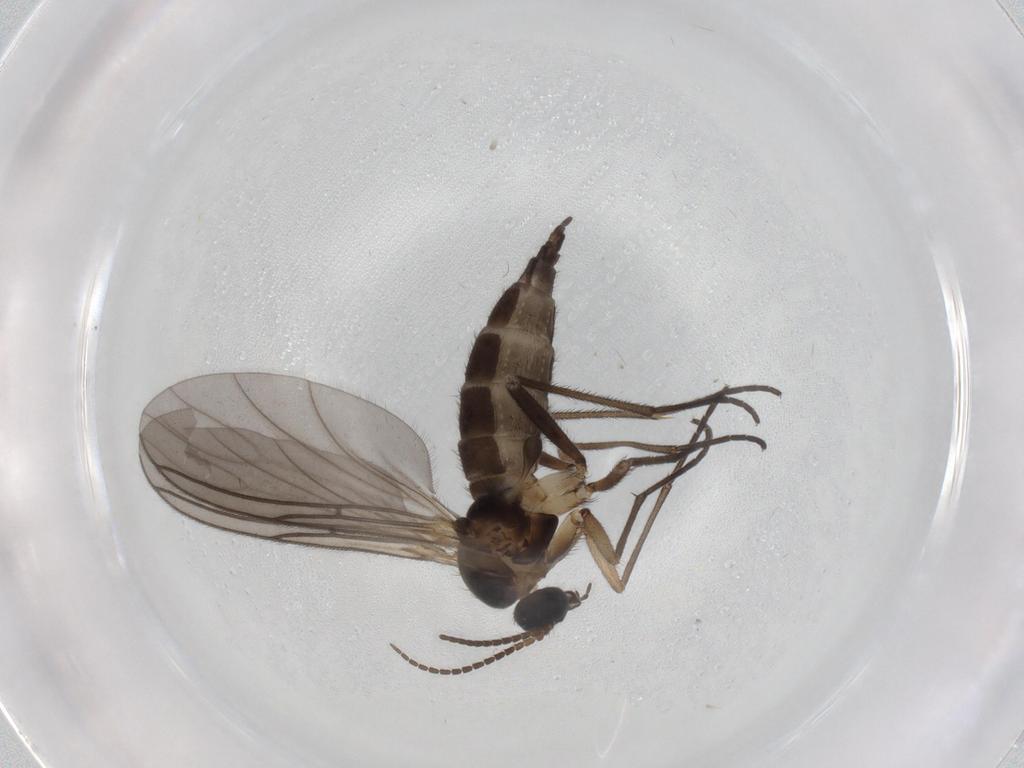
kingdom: Animalia
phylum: Arthropoda
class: Insecta
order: Diptera
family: Sciaridae
